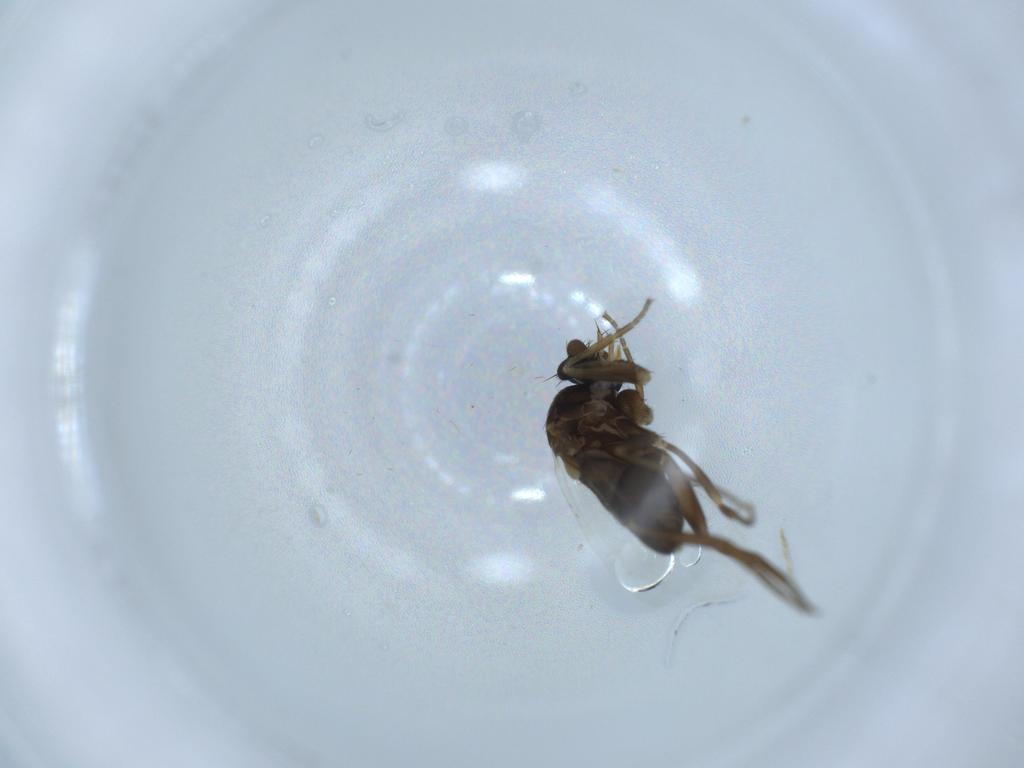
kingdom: Animalia
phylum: Arthropoda
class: Insecta
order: Diptera
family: Phoridae
